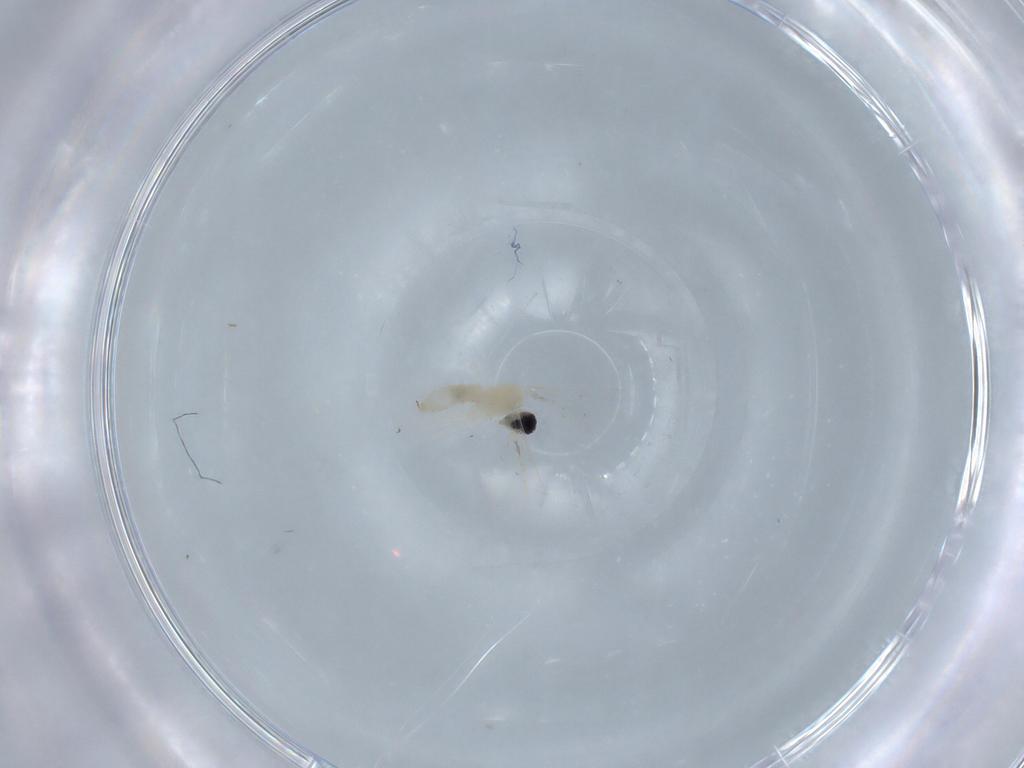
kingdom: Animalia
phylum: Arthropoda
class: Insecta
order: Diptera
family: Cecidomyiidae
